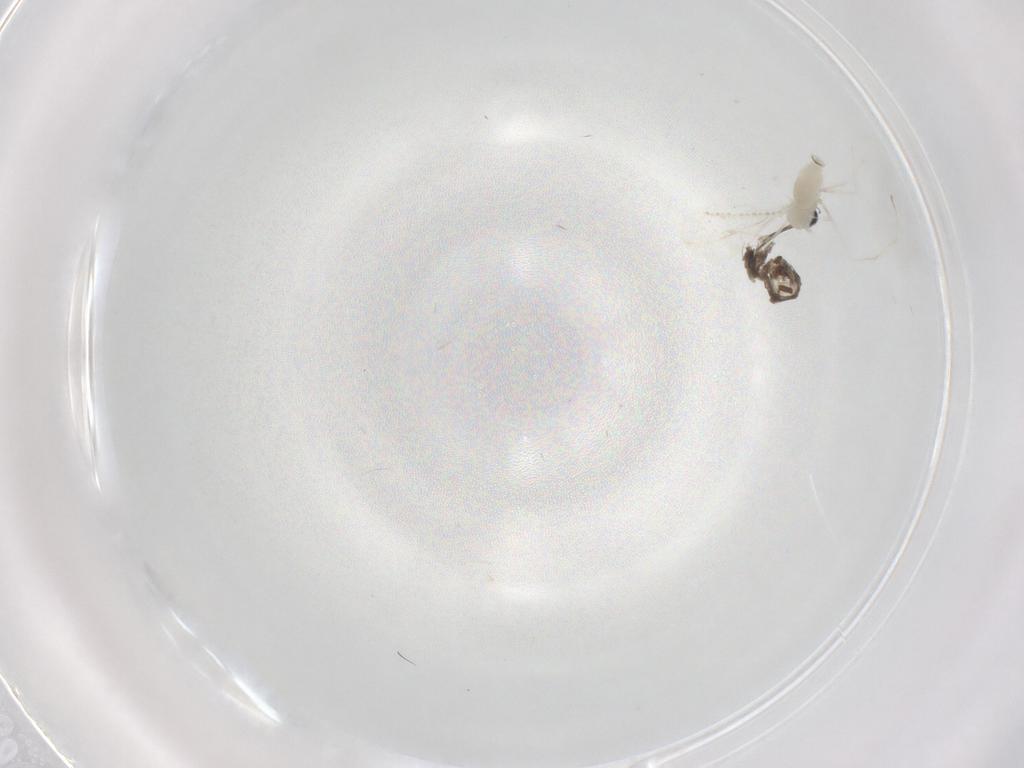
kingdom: Animalia
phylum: Arthropoda
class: Insecta
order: Diptera
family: Cecidomyiidae
